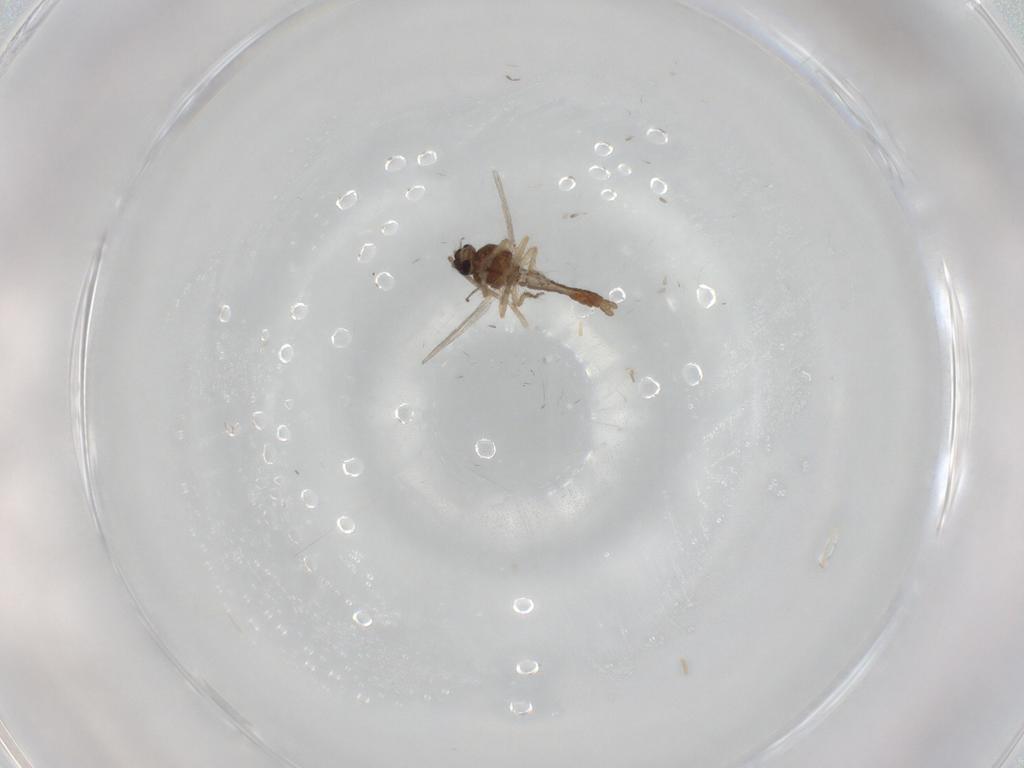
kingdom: Animalia
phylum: Arthropoda
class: Insecta
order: Diptera
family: Ceratopogonidae
